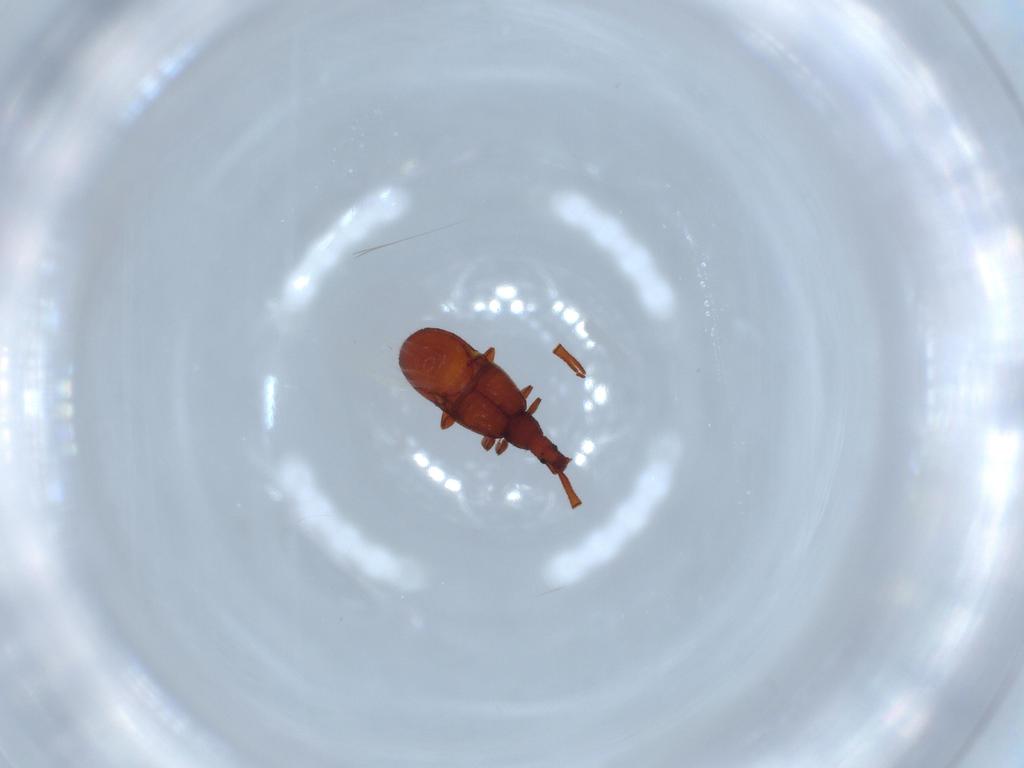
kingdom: Animalia
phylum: Arthropoda
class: Insecta
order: Coleoptera
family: Staphylinidae
